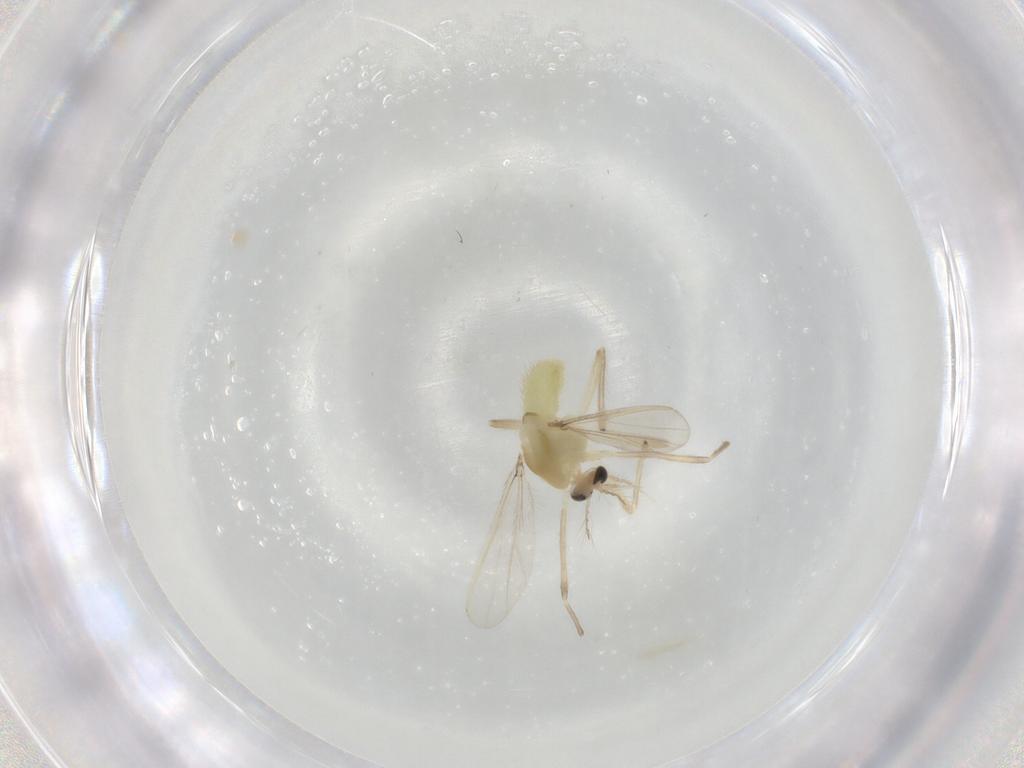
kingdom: Animalia
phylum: Arthropoda
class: Insecta
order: Diptera
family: Chironomidae
